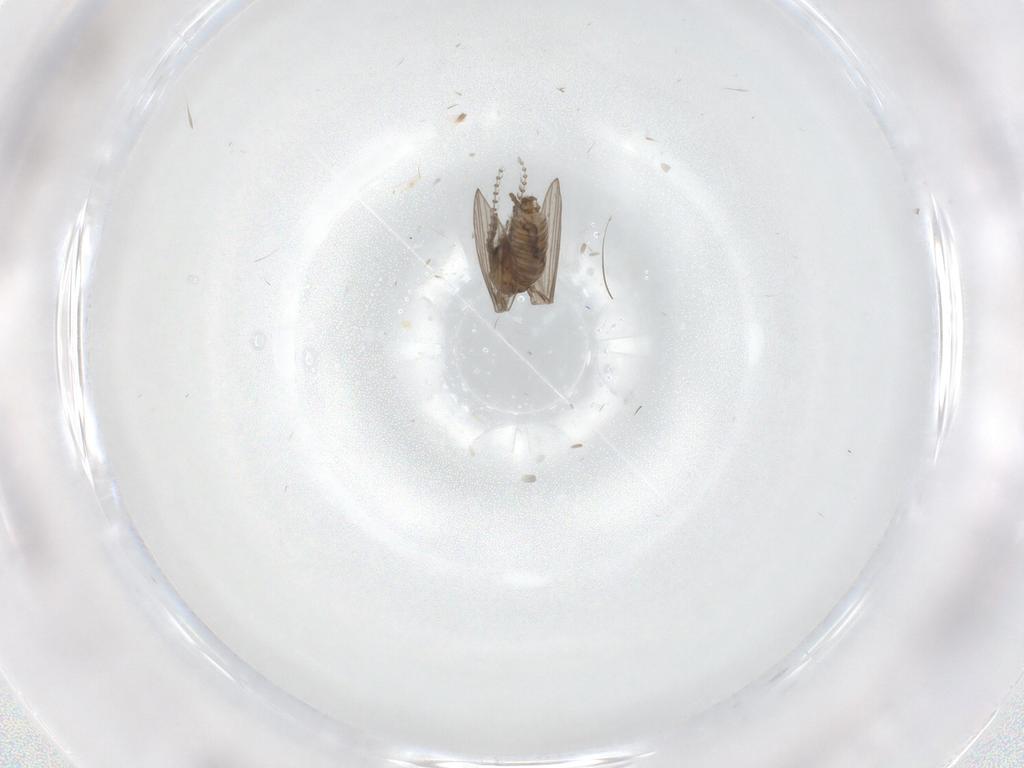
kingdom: Animalia
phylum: Arthropoda
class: Insecta
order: Diptera
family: Psychodidae
